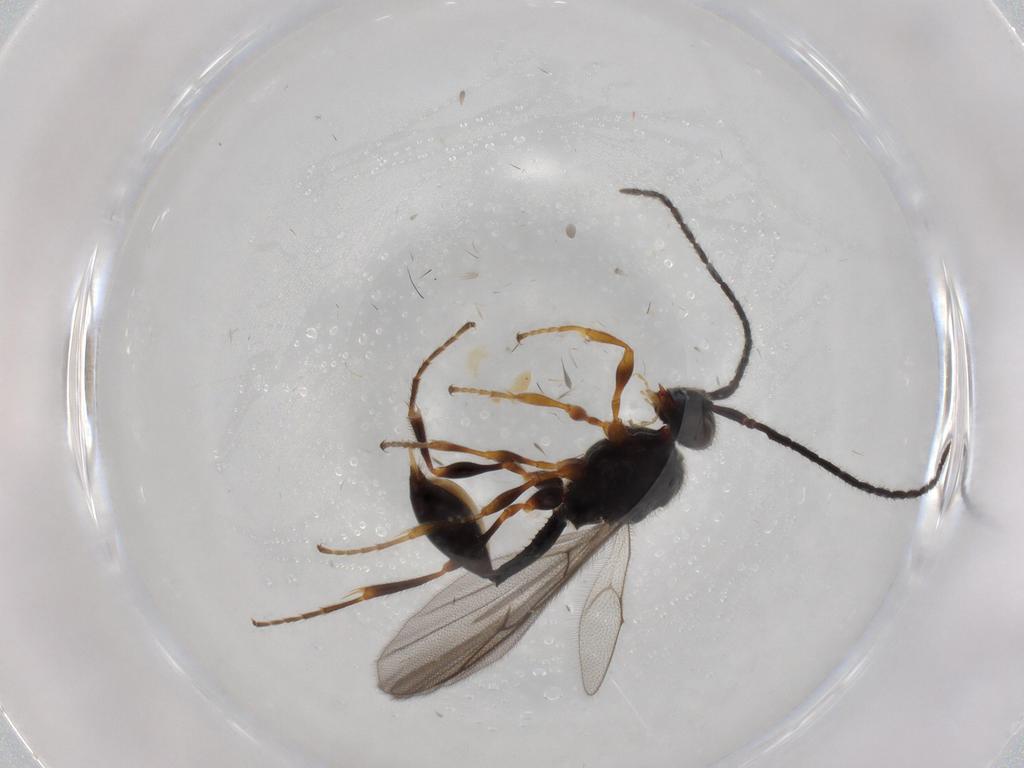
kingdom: Animalia
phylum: Arthropoda
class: Insecta
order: Hymenoptera
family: Diapriidae
